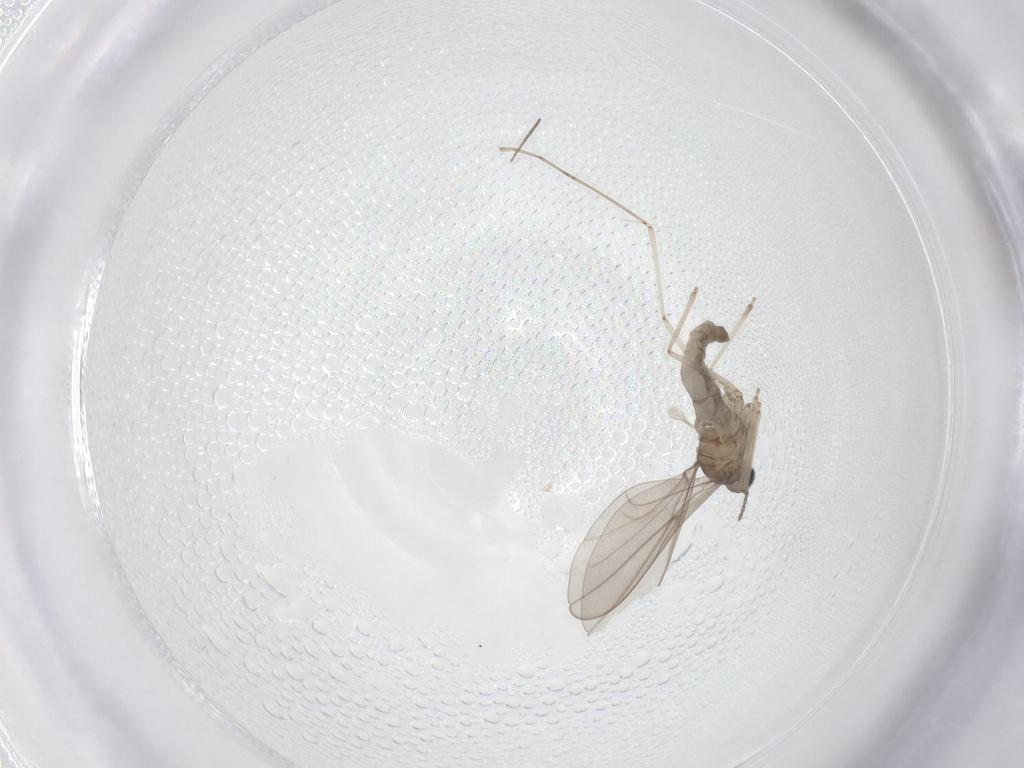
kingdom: Animalia
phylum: Arthropoda
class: Insecta
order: Diptera
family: Cecidomyiidae
